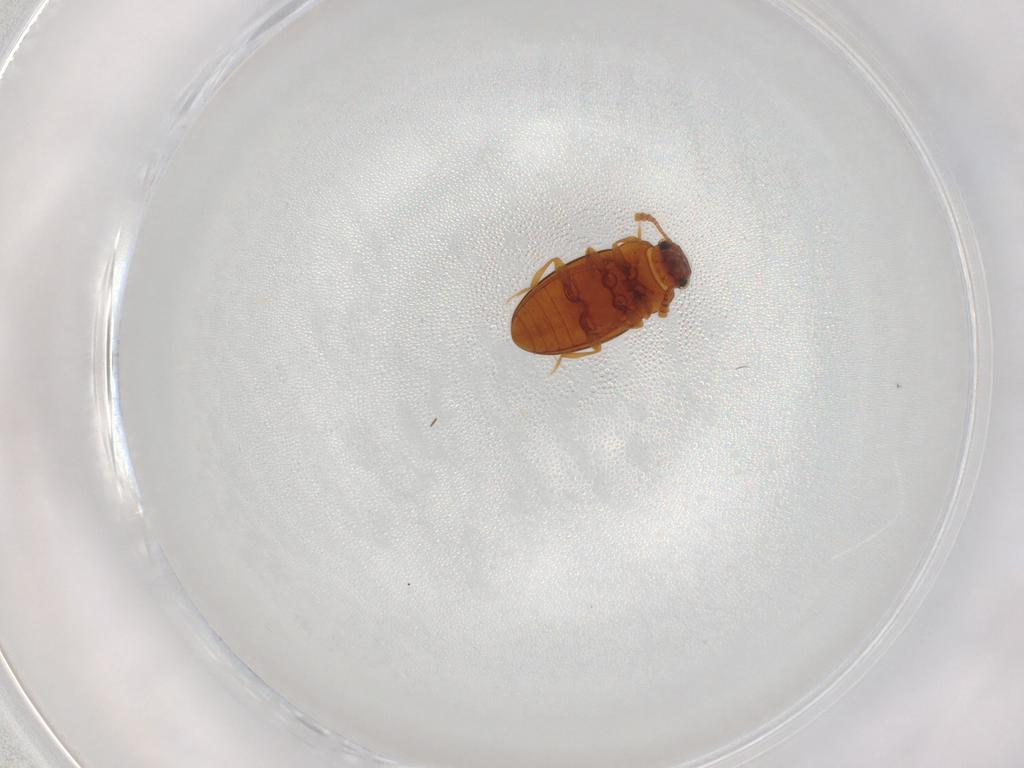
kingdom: Animalia
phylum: Arthropoda
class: Insecta
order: Coleoptera
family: Erotylidae
